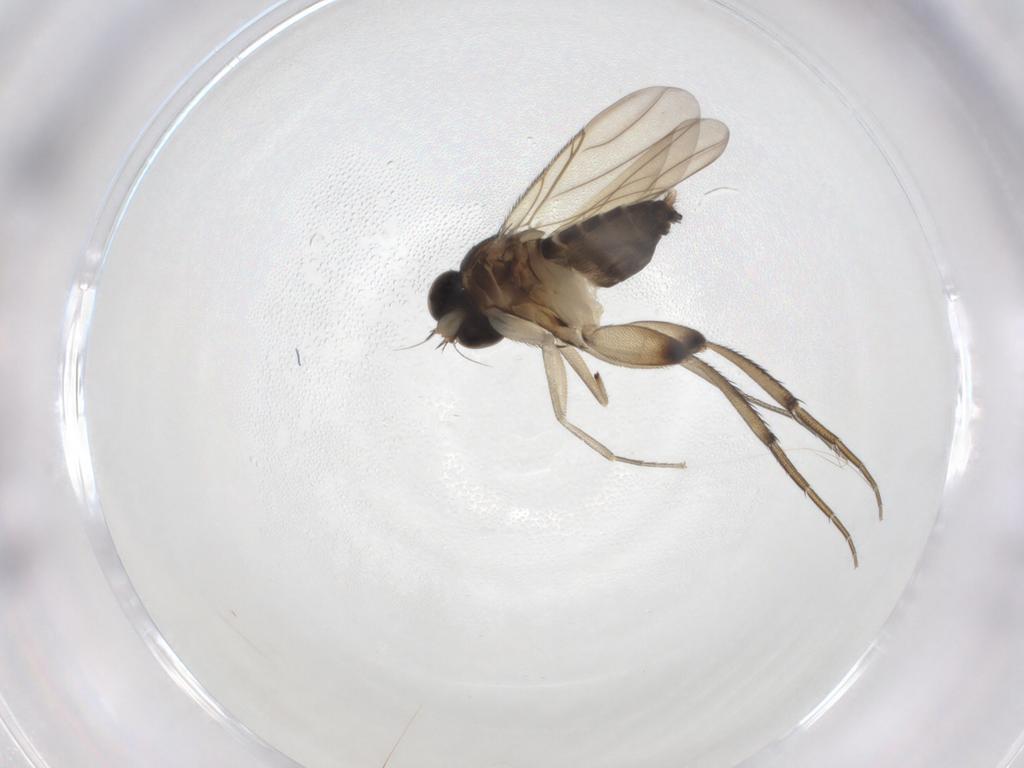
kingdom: Animalia
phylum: Arthropoda
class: Insecta
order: Diptera
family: Phoridae
